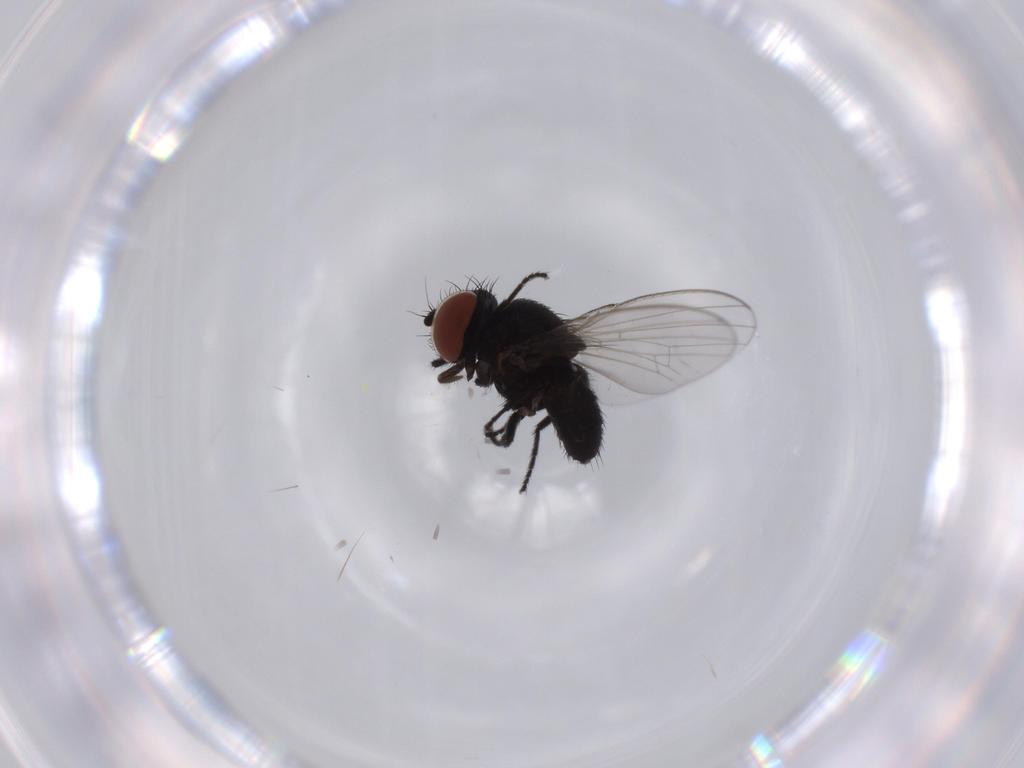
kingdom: Animalia
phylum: Arthropoda
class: Insecta
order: Diptera
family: Milichiidae
